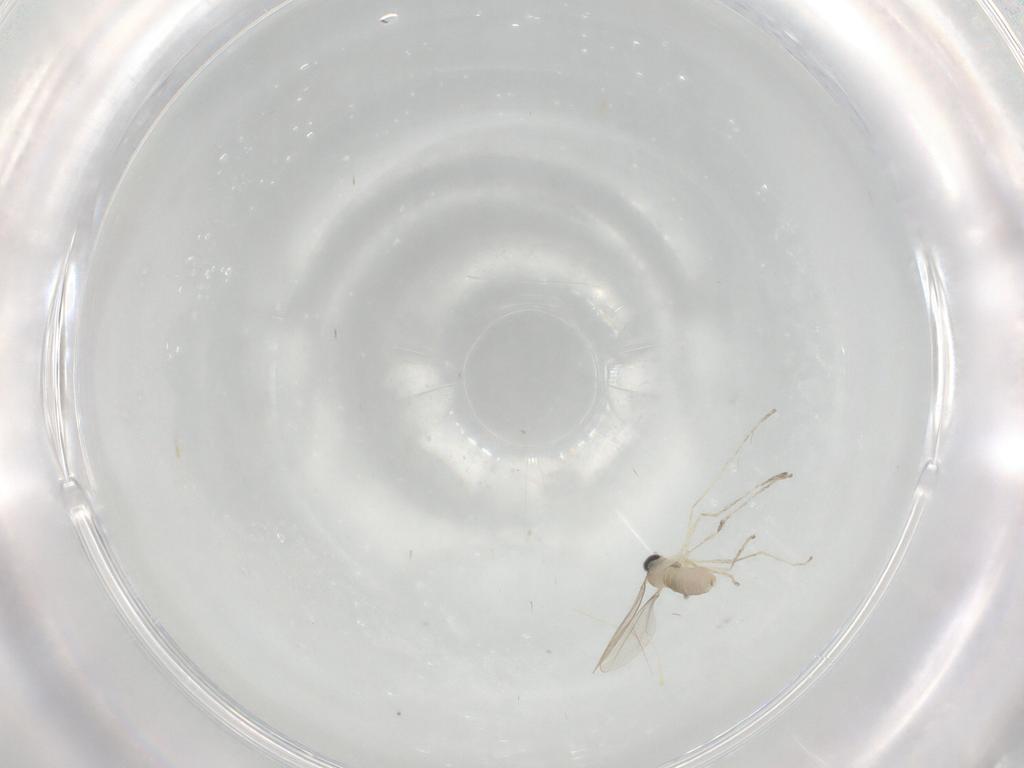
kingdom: Animalia
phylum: Arthropoda
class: Insecta
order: Diptera
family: Cecidomyiidae
